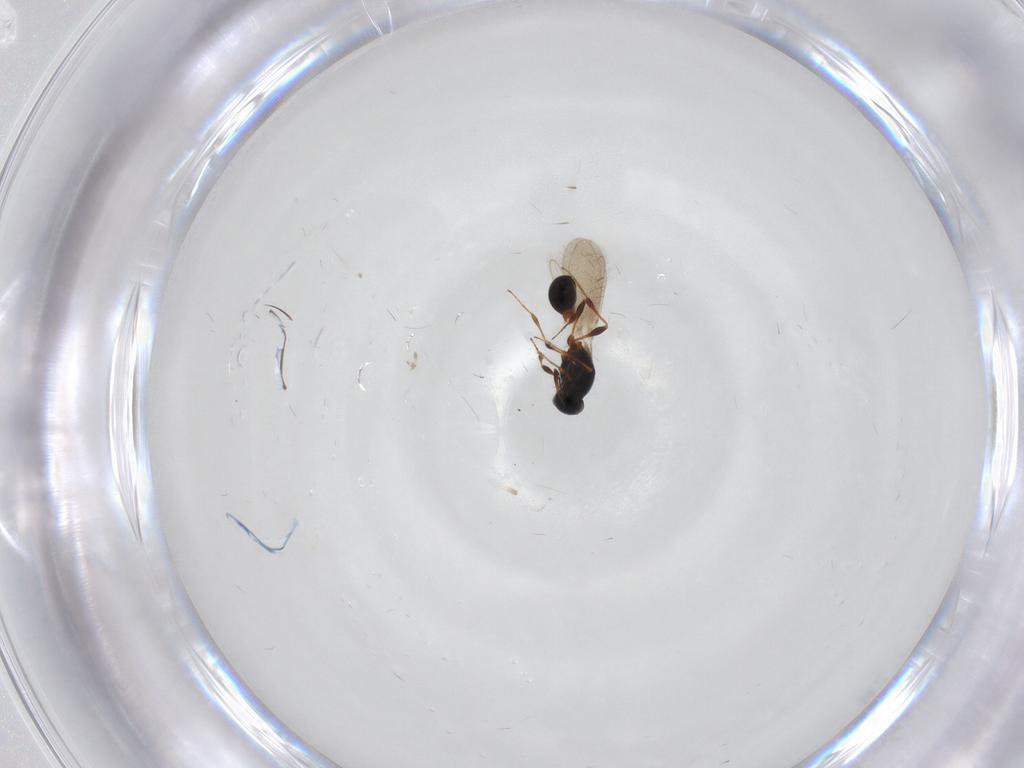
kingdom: Animalia
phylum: Arthropoda
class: Insecta
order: Hymenoptera
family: Platygastridae
